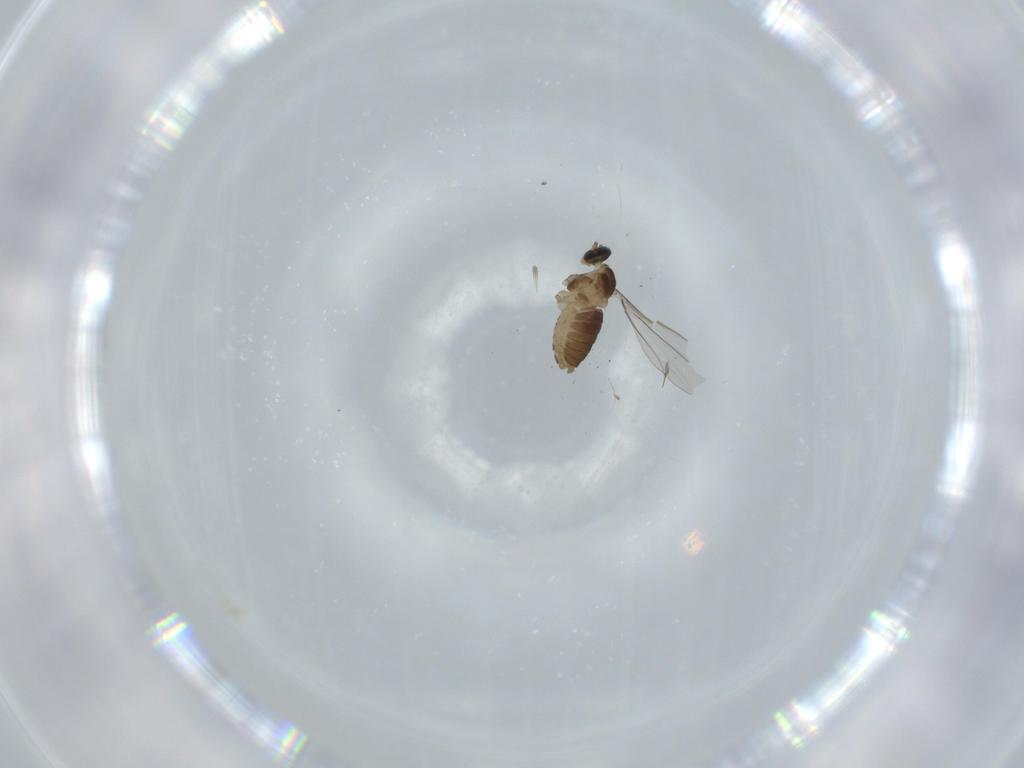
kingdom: Animalia
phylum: Arthropoda
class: Insecta
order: Diptera
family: Cecidomyiidae
